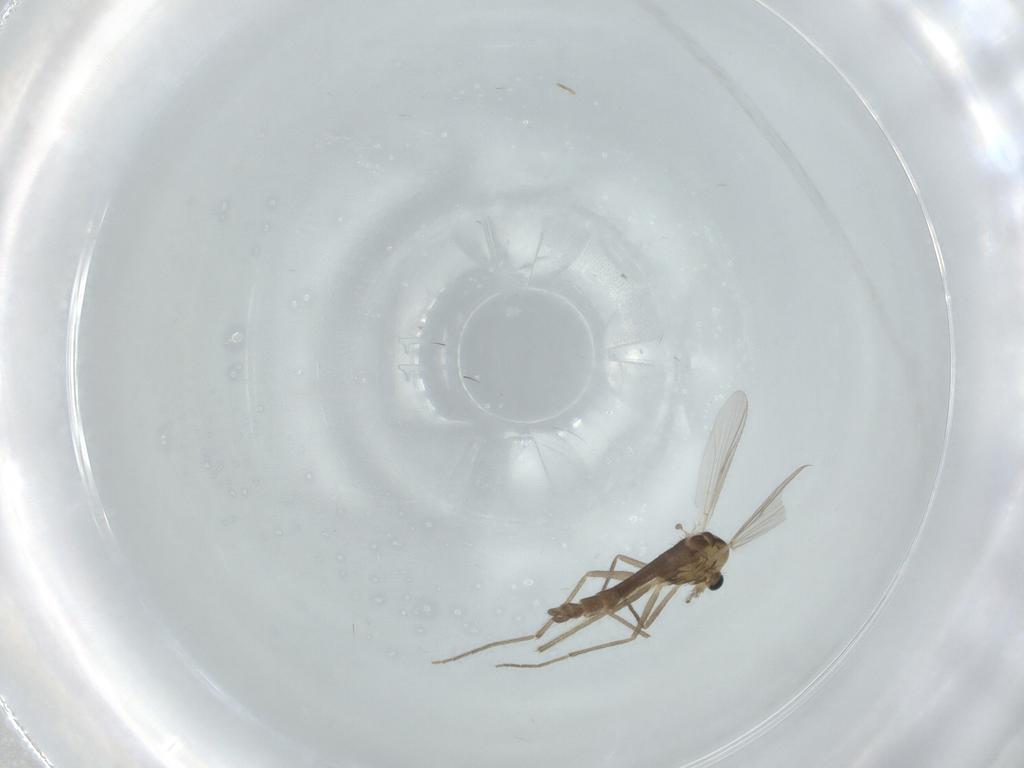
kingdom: Animalia
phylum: Arthropoda
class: Insecta
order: Diptera
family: Chironomidae
